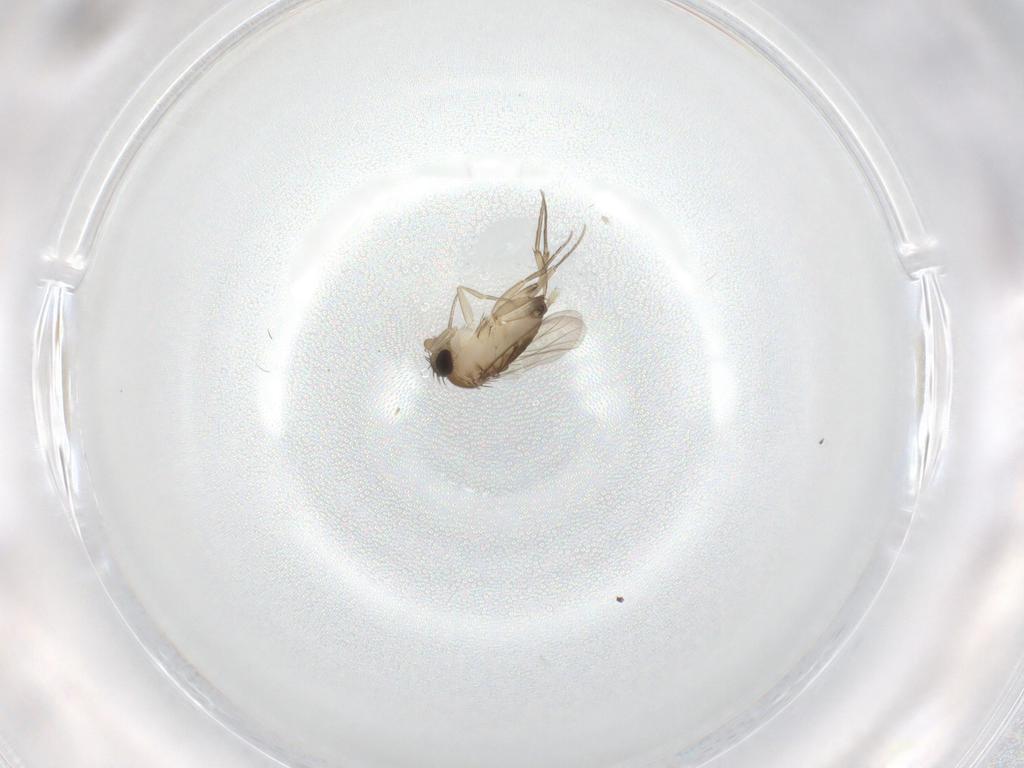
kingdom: Animalia
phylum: Arthropoda
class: Insecta
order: Diptera
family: Phoridae
